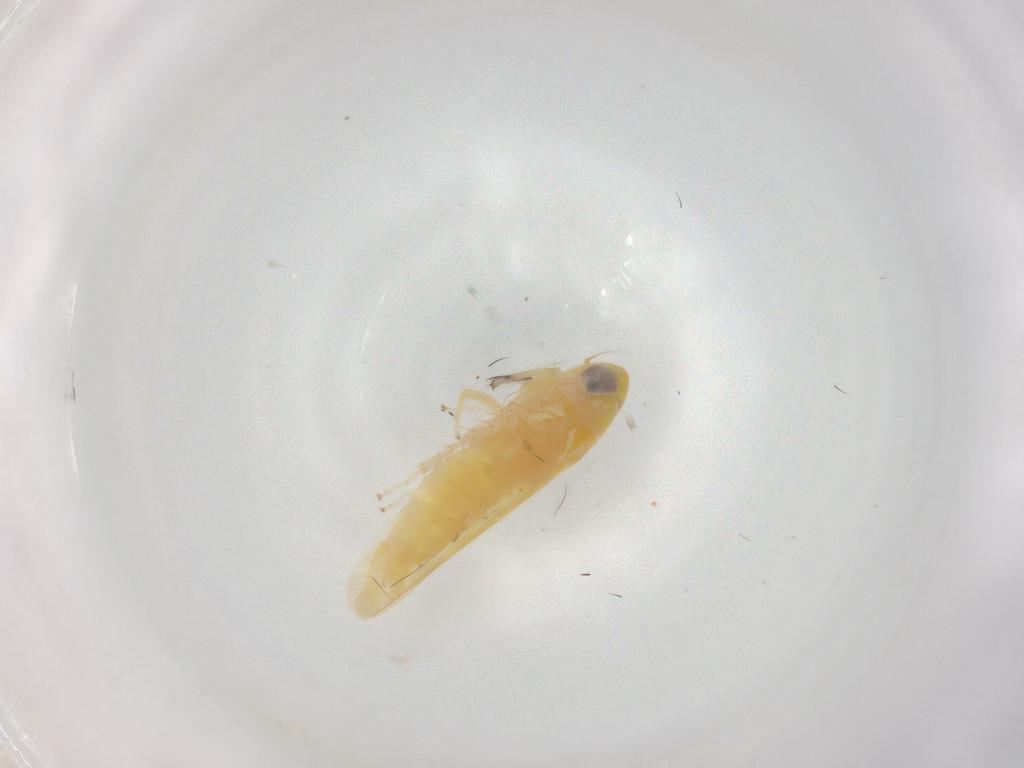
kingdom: Animalia
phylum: Arthropoda
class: Insecta
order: Hemiptera
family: Cicadellidae
